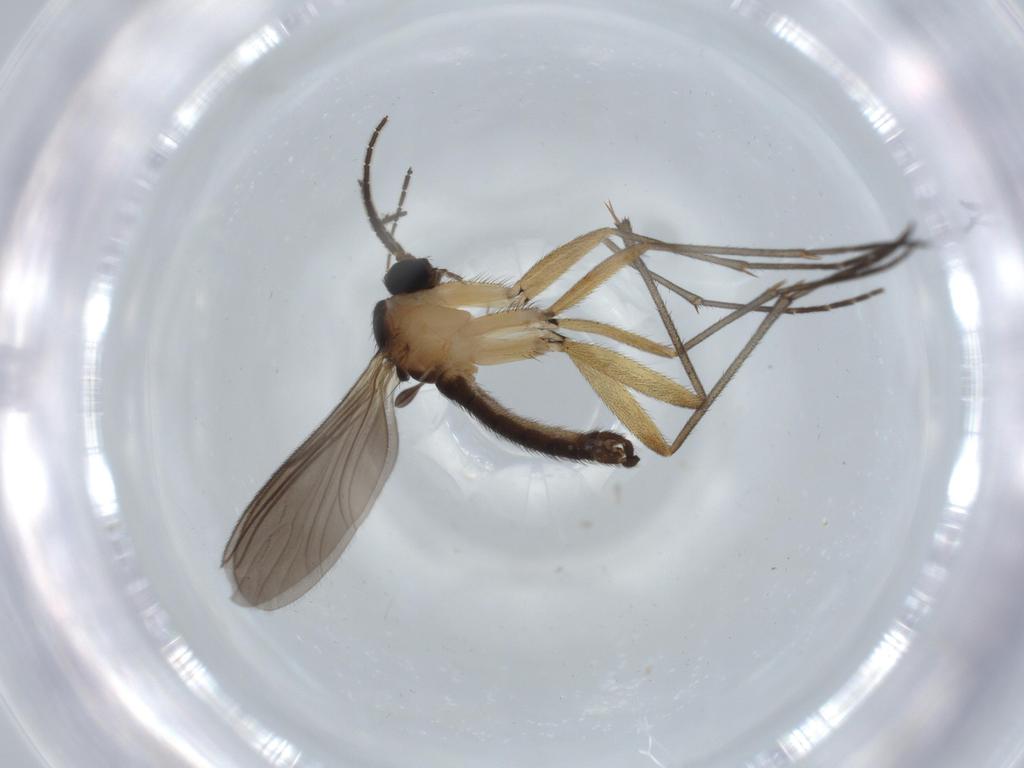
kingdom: Animalia
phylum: Arthropoda
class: Insecta
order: Diptera
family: Sciaridae
